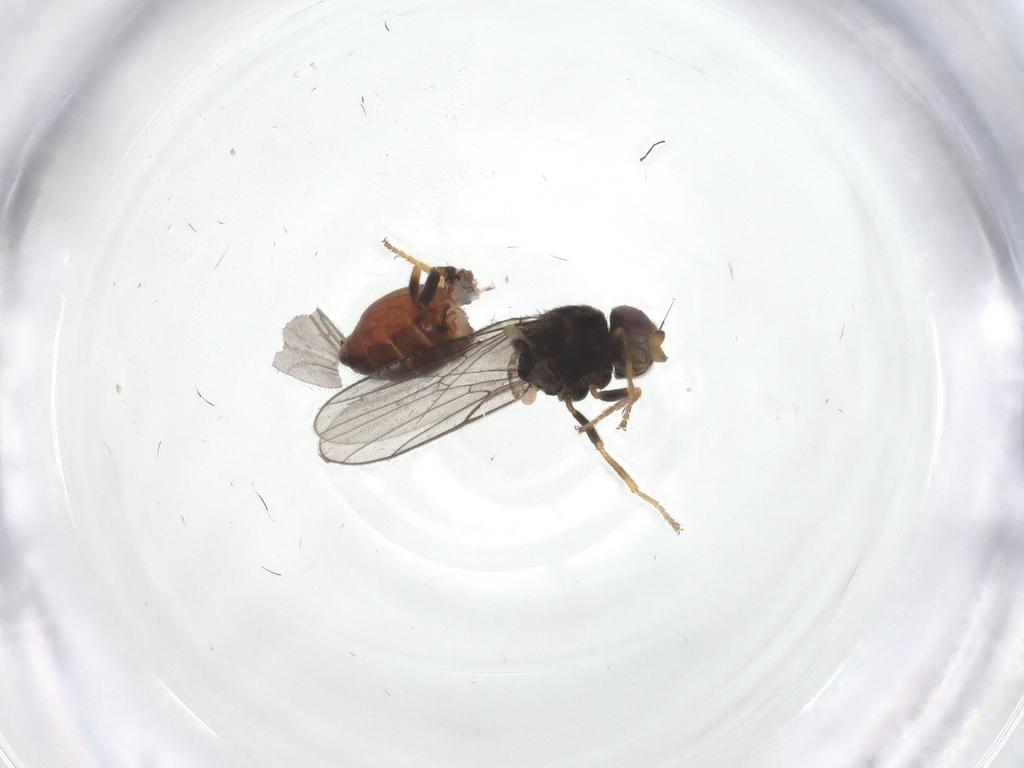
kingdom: Animalia
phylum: Arthropoda
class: Insecta
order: Diptera
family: Chloropidae
